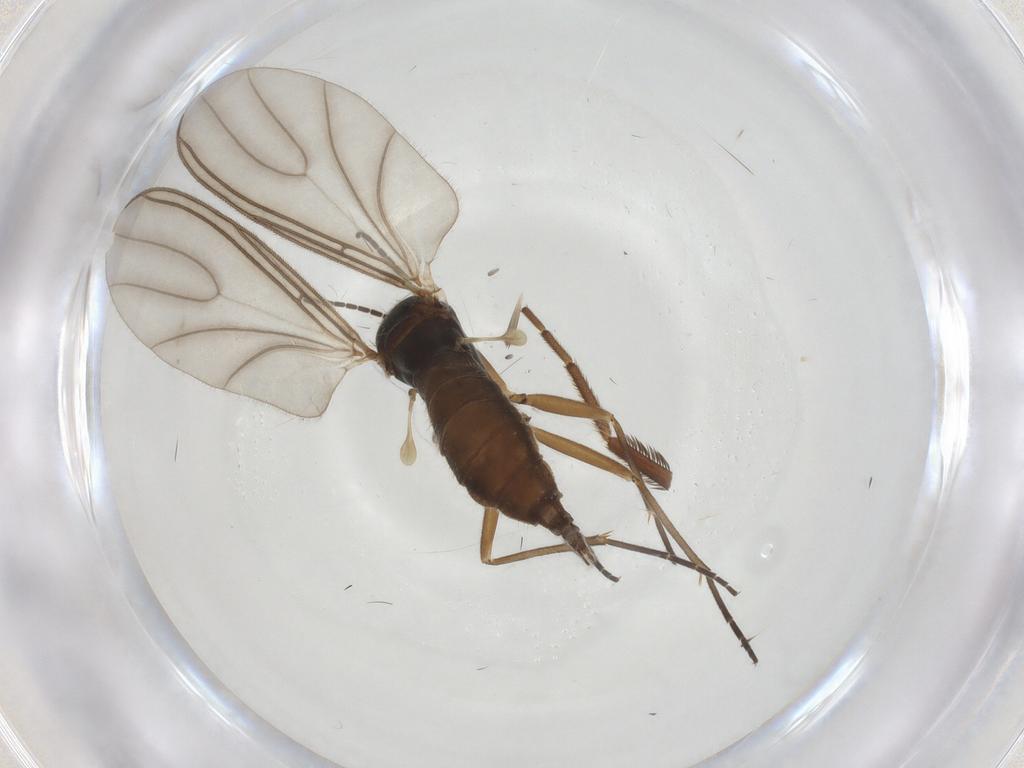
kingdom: Animalia
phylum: Arthropoda
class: Insecta
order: Diptera
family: Sciaridae
